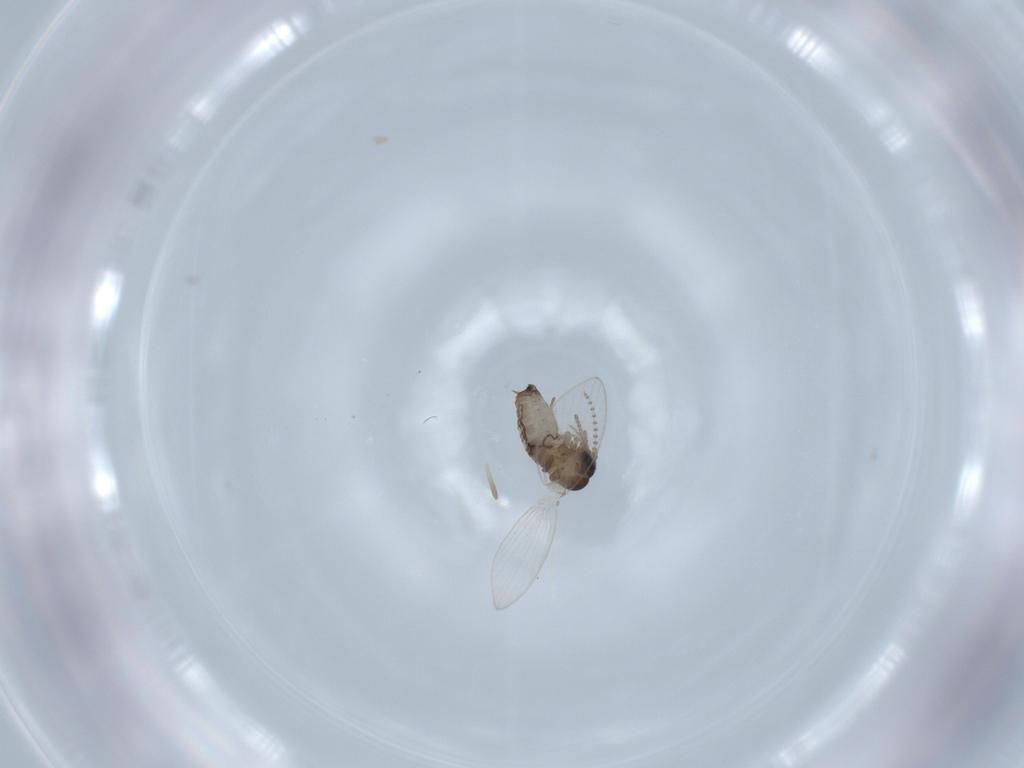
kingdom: Animalia
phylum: Arthropoda
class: Insecta
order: Diptera
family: Psychodidae
